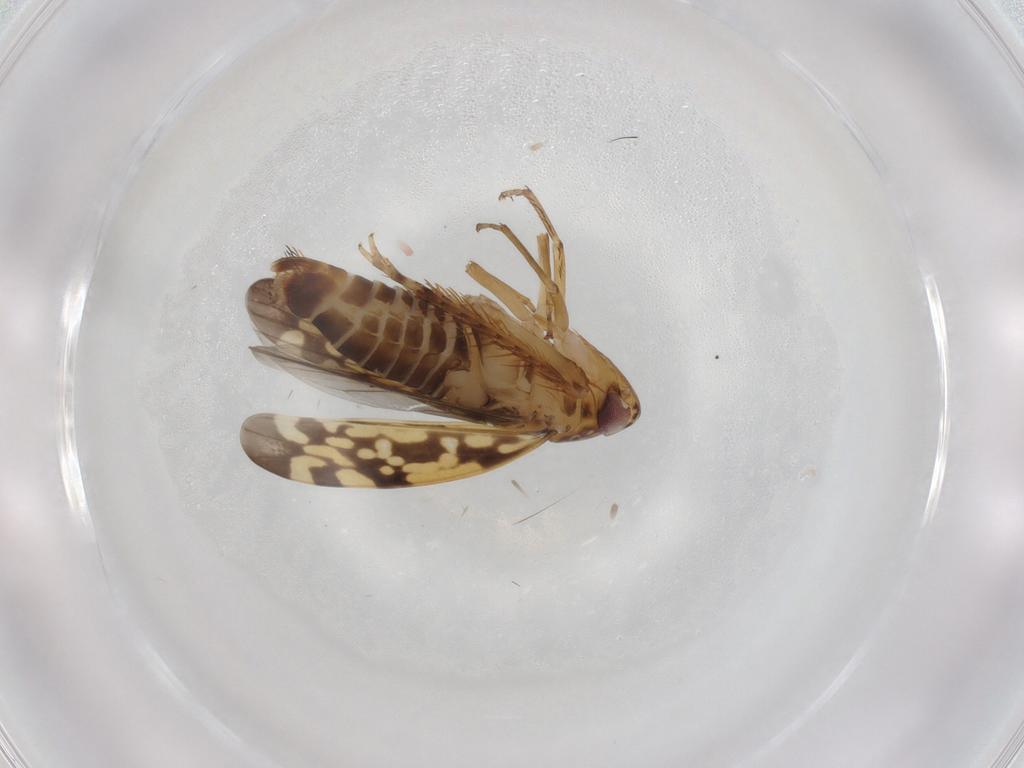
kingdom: Animalia
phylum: Arthropoda
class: Insecta
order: Hemiptera
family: Cicadellidae
